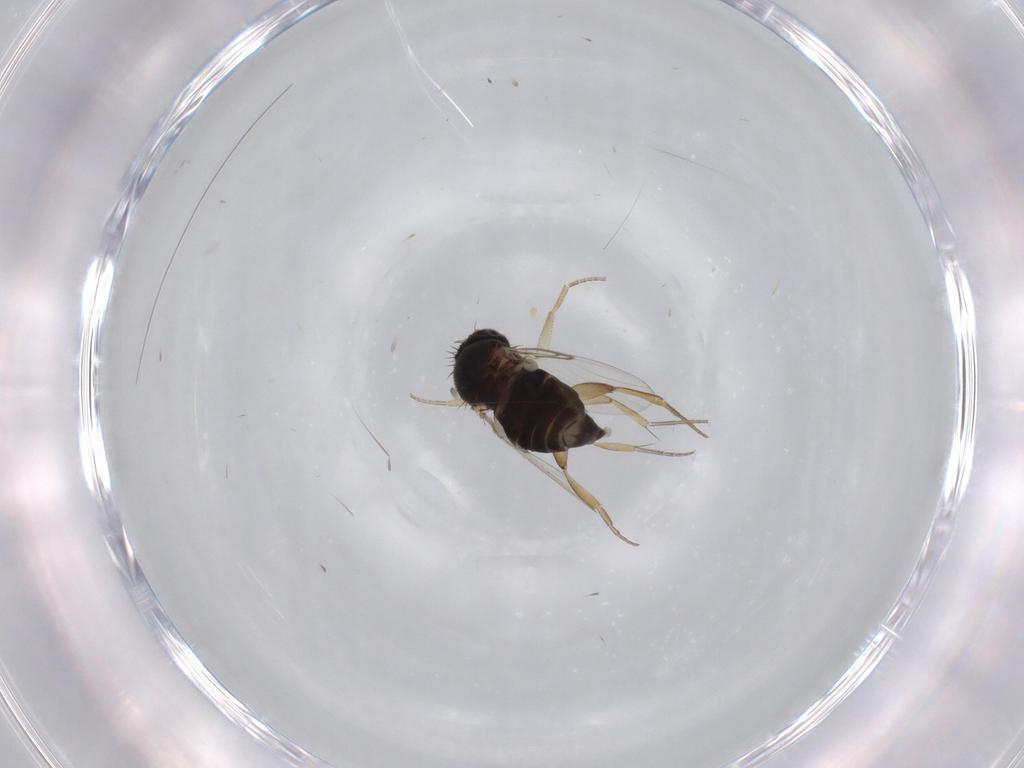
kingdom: Animalia
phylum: Arthropoda
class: Insecta
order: Diptera
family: Phoridae
